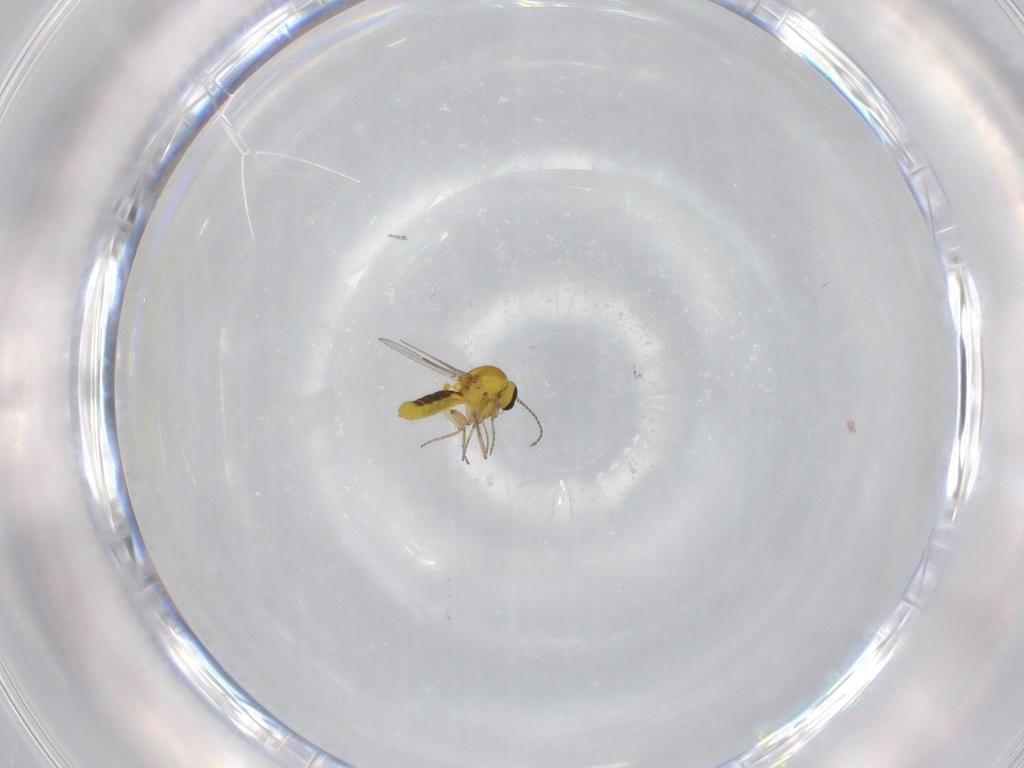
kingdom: Animalia
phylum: Arthropoda
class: Insecta
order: Diptera
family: Ceratopogonidae
